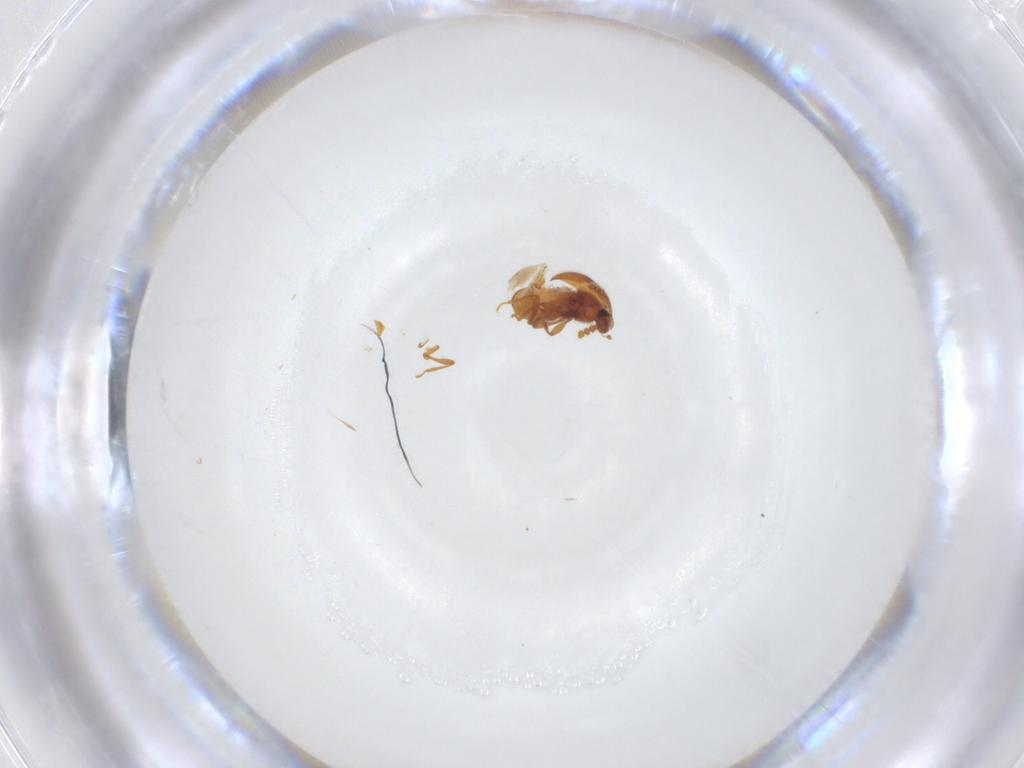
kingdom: Animalia
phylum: Arthropoda
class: Insecta
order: Coleoptera
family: Staphylinidae
